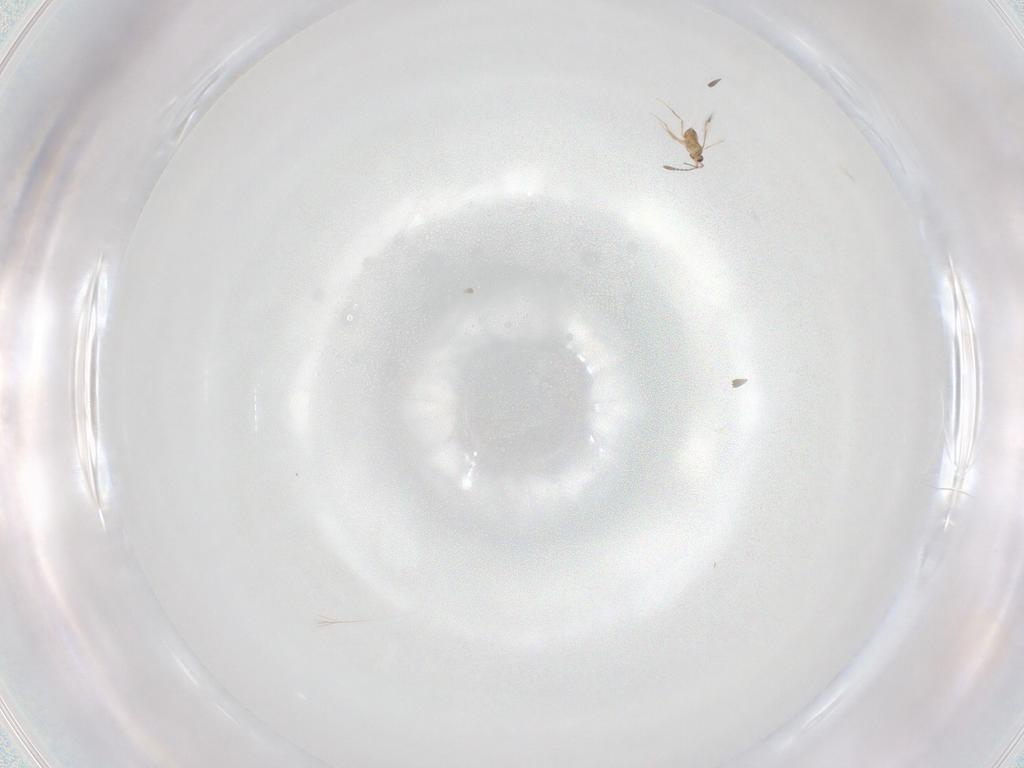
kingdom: Animalia
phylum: Arthropoda
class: Insecta
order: Hymenoptera
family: Mymaridae
